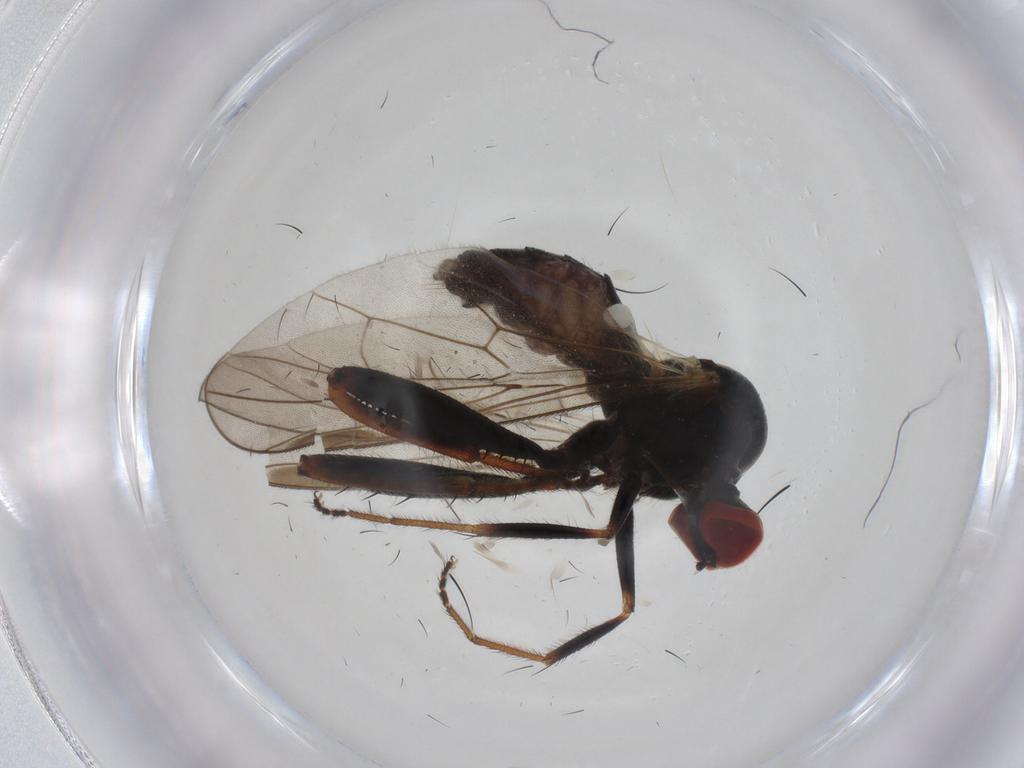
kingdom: Animalia
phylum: Arthropoda
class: Insecta
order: Diptera
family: Hybotidae
